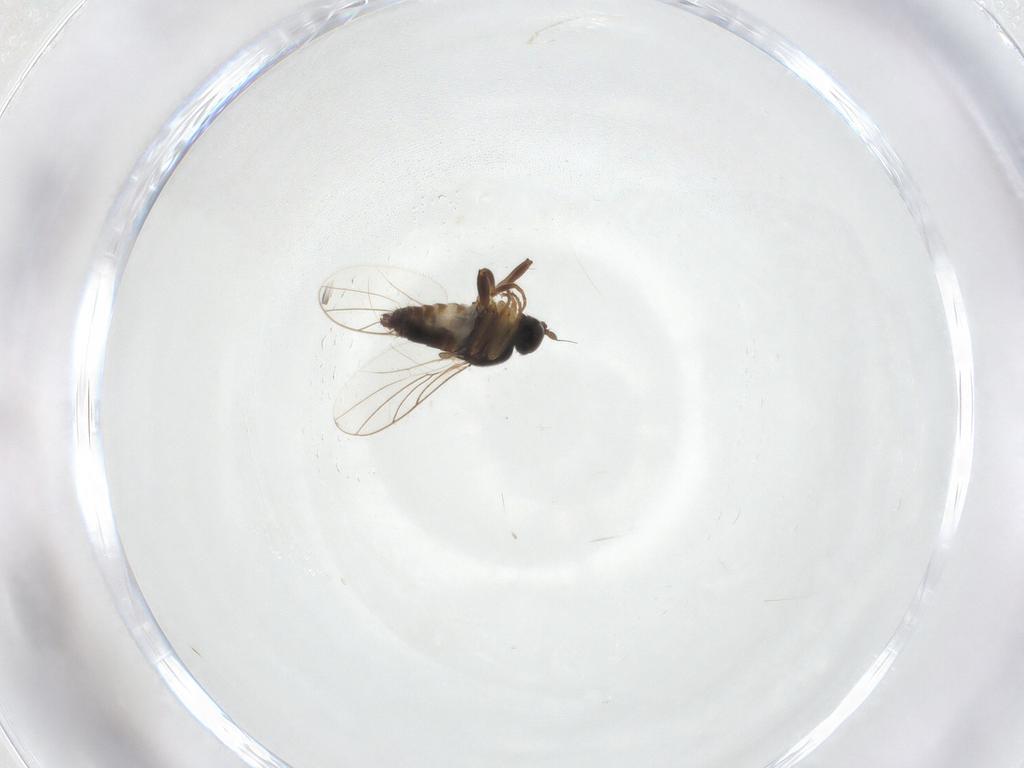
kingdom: Animalia
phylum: Arthropoda
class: Insecta
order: Diptera
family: Hybotidae
